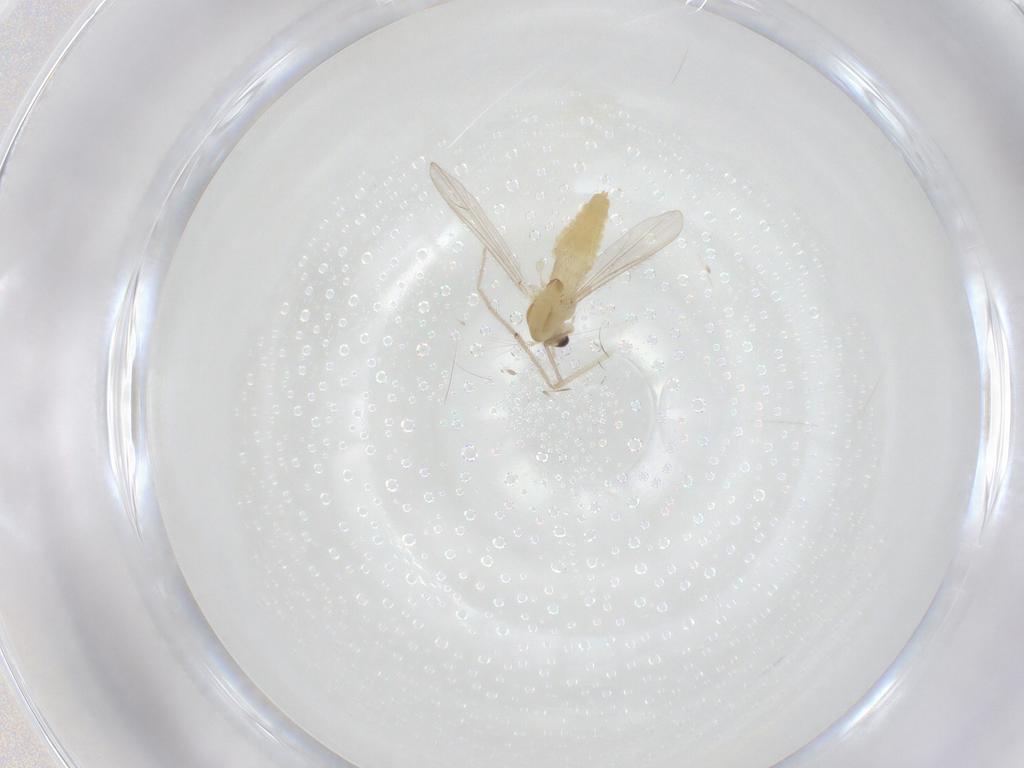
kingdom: Animalia
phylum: Arthropoda
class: Insecta
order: Diptera
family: Chironomidae
